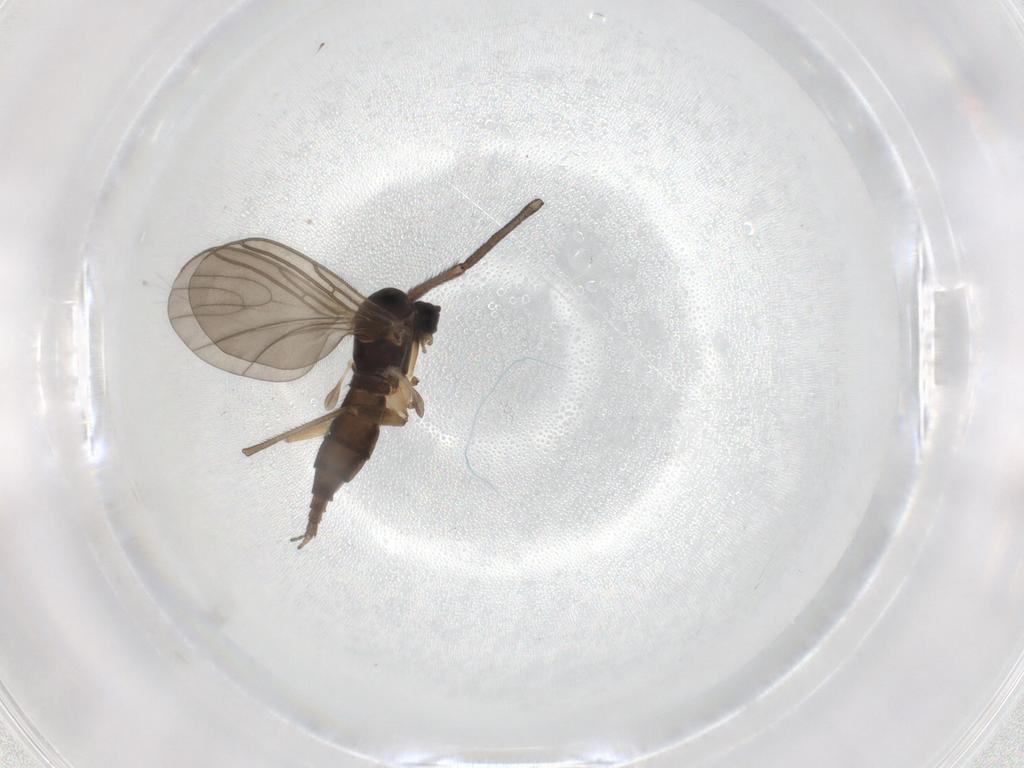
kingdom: Animalia
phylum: Arthropoda
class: Insecta
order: Diptera
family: Sciaridae
